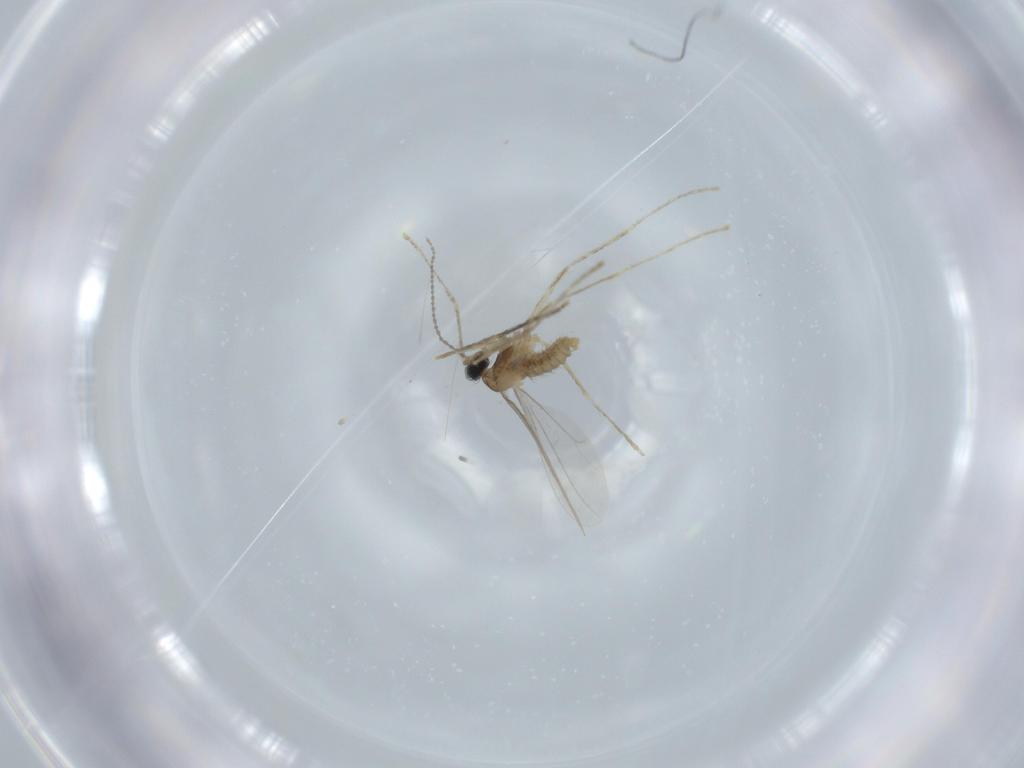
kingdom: Animalia
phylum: Arthropoda
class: Insecta
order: Diptera
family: Cecidomyiidae
